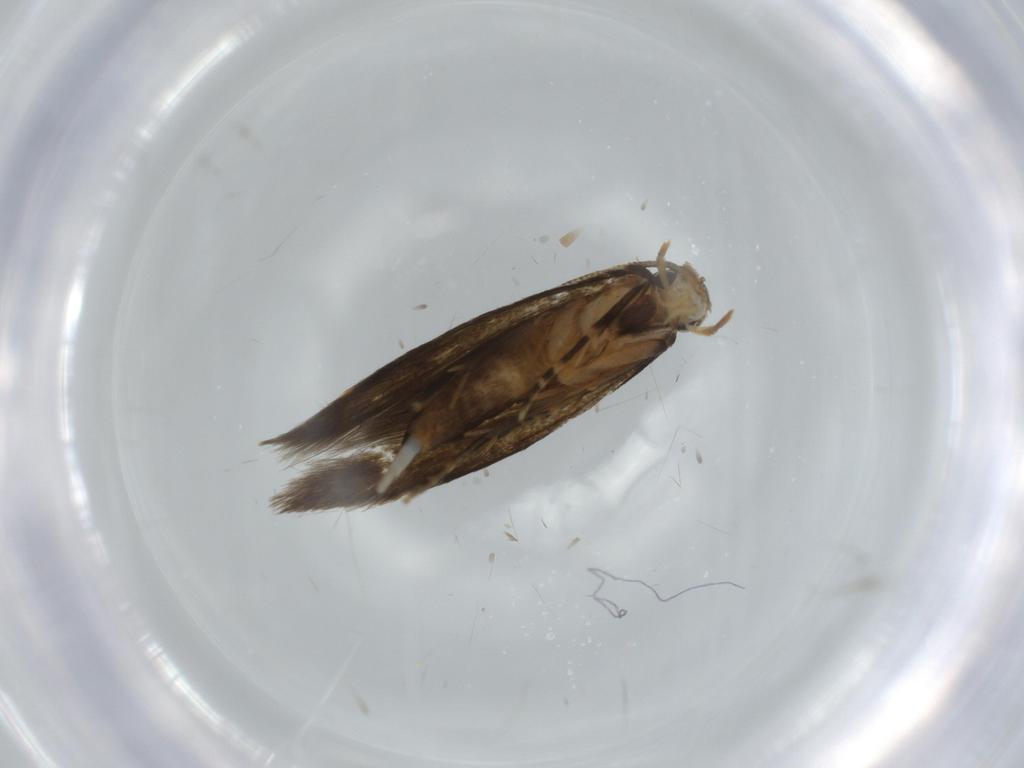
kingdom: Animalia
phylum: Arthropoda
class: Insecta
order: Lepidoptera
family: Tineidae
